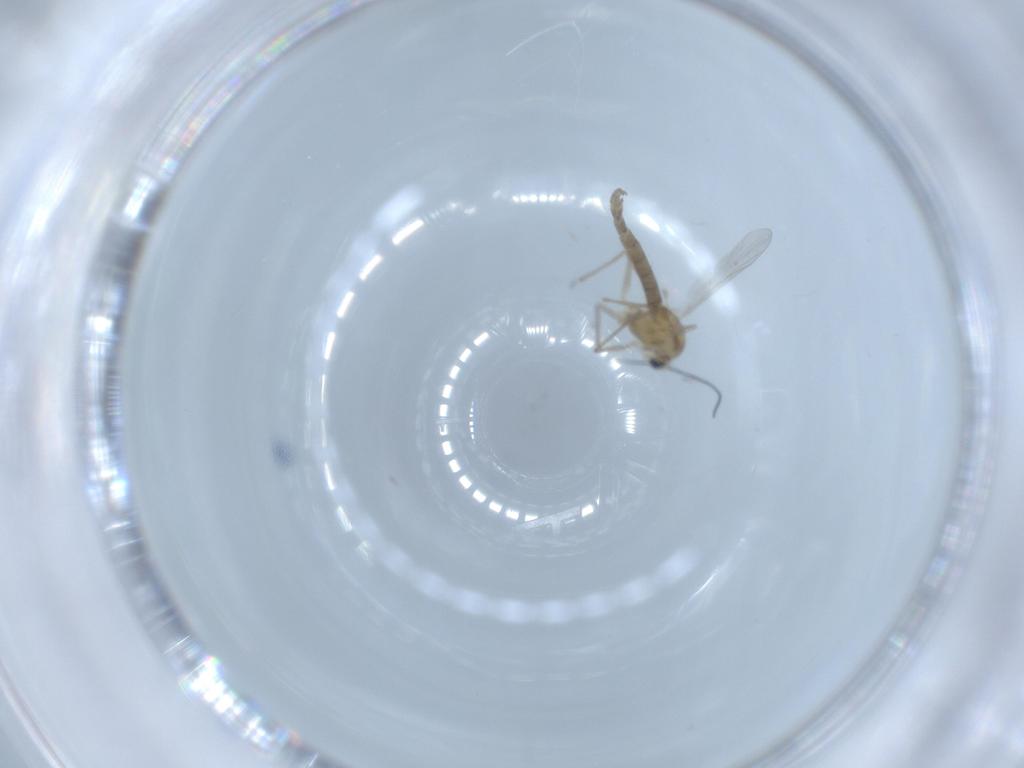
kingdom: Animalia
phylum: Arthropoda
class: Insecta
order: Diptera
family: Chironomidae
